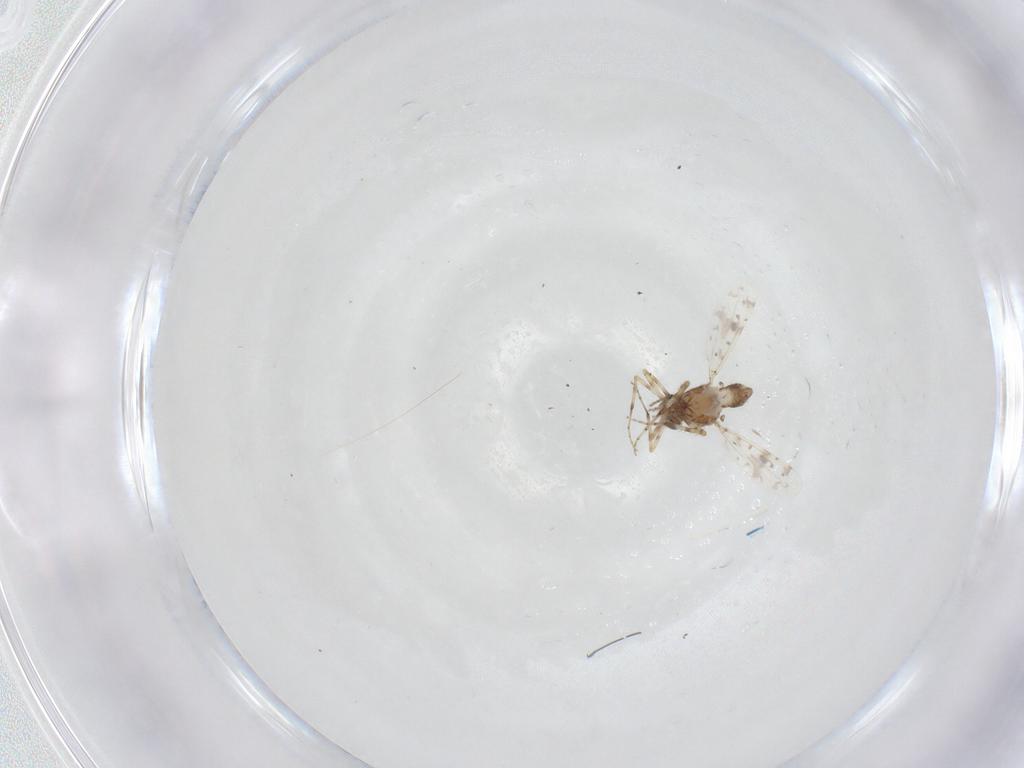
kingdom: Animalia
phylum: Arthropoda
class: Insecta
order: Diptera
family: Ceratopogonidae
